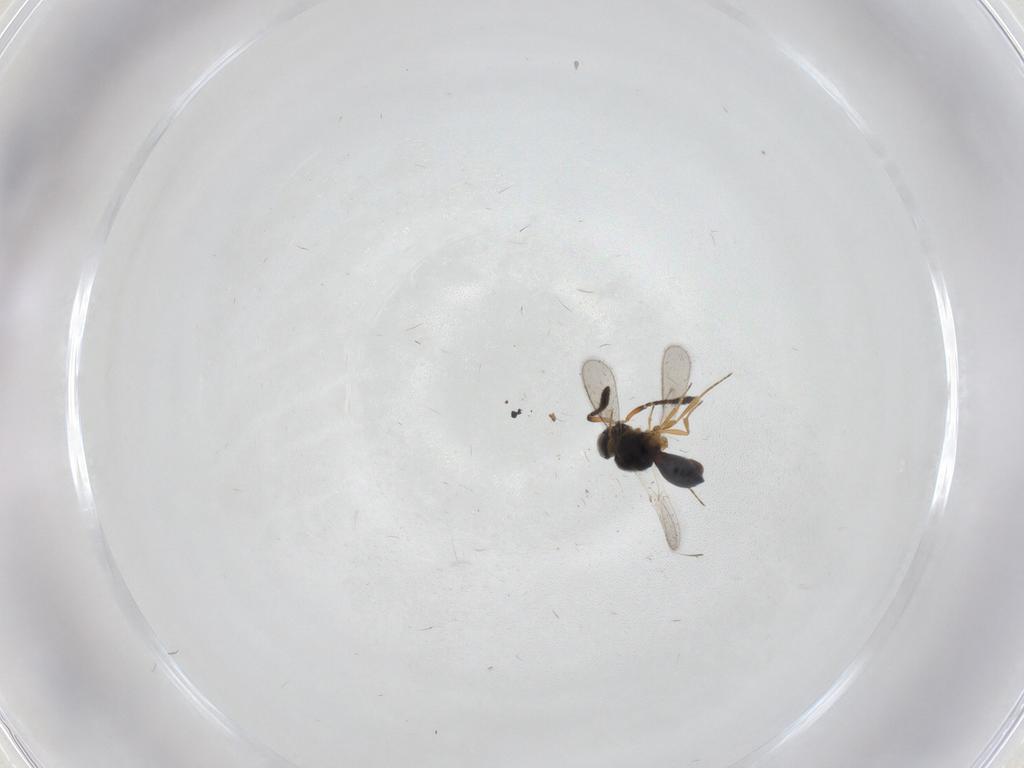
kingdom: Animalia
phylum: Arthropoda
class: Insecta
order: Hymenoptera
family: Scelionidae
